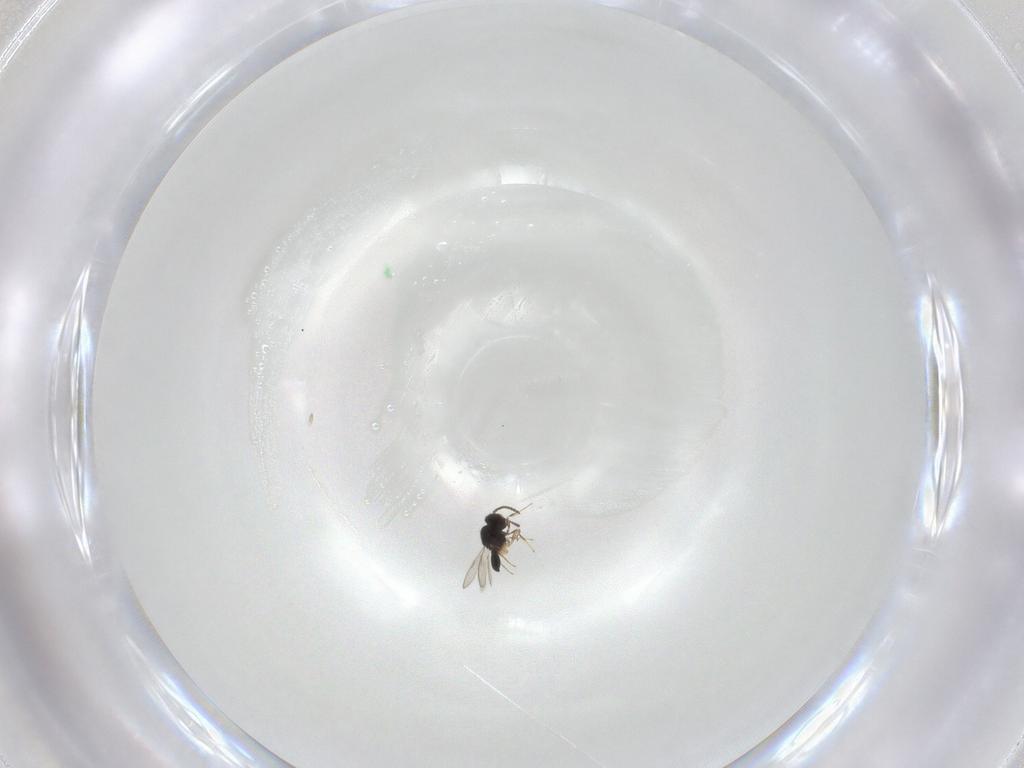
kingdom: Animalia
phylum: Arthropoda
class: Insecta
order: Hymenoptera
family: Scelionidae
